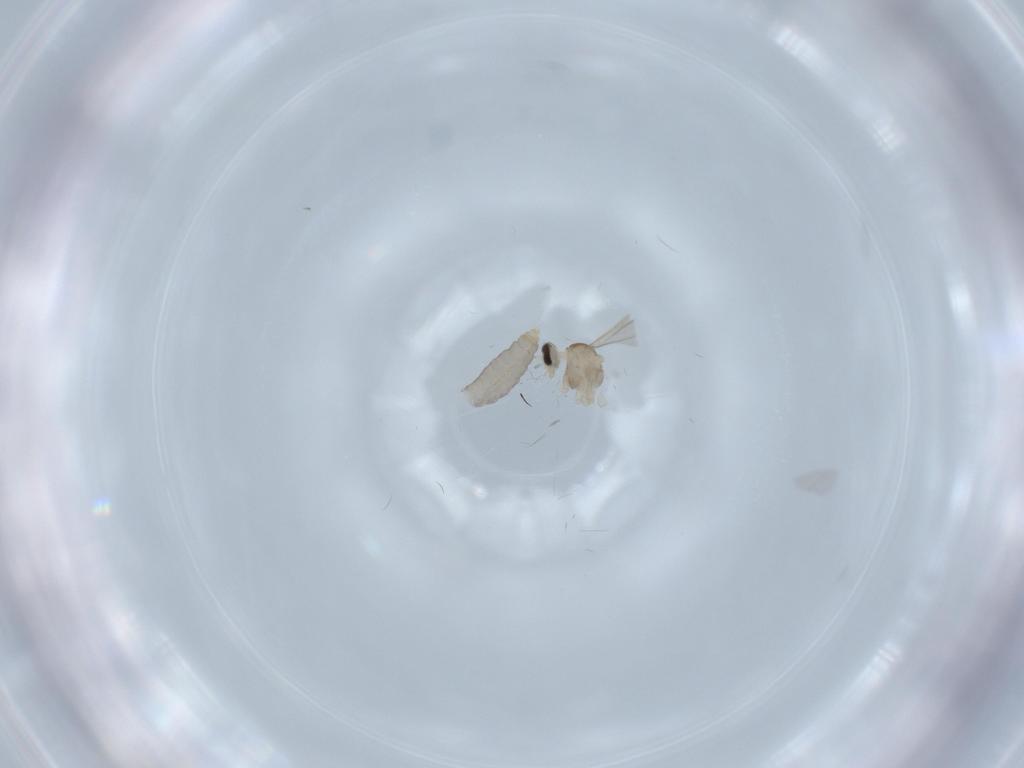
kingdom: Animalia
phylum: Arthropoda
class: Insecta
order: Diptera
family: Cecidomyiidae
